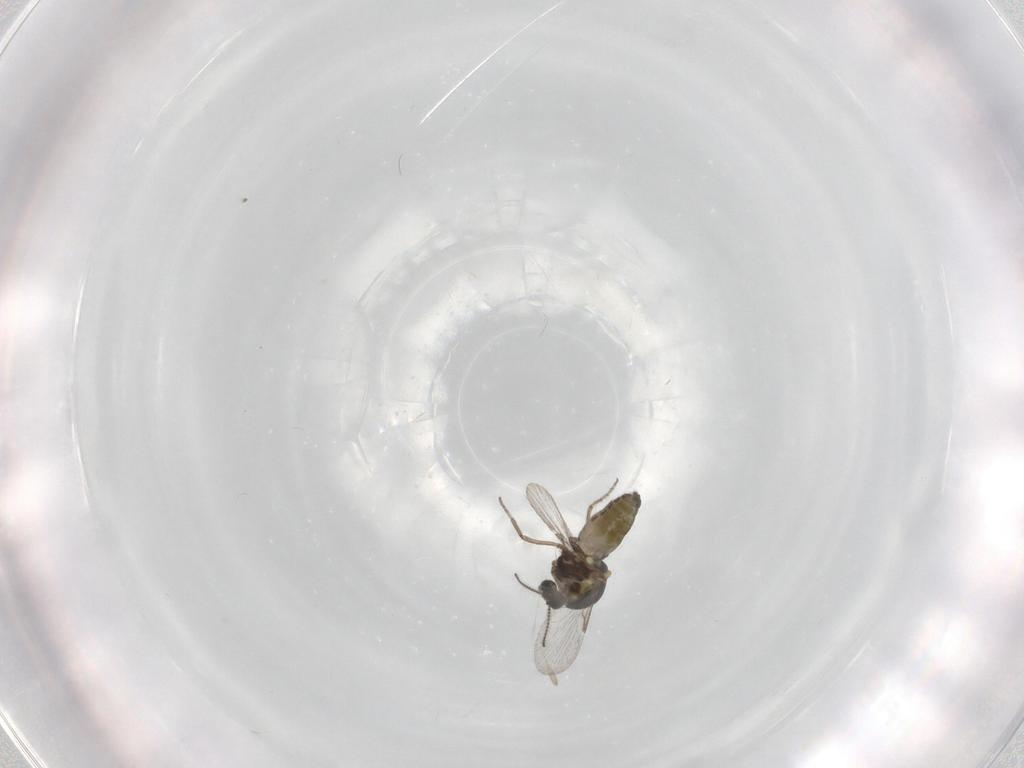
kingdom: Animalia
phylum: Arthropoda
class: Insecta
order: Diptera
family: Ceratopogonidae
